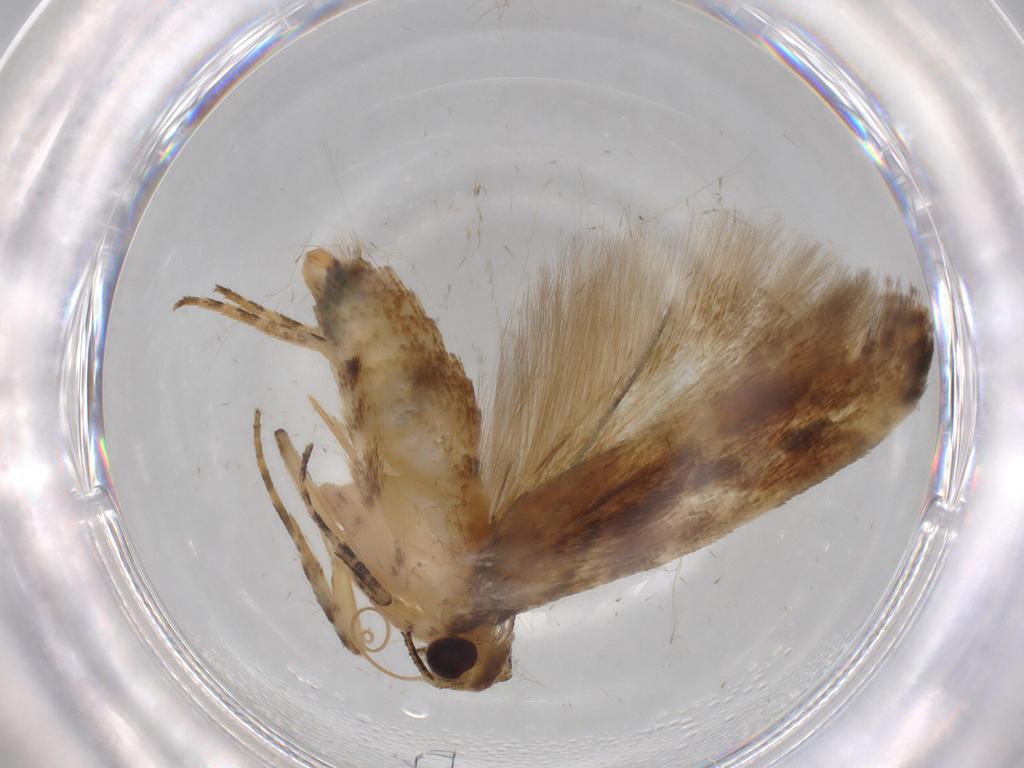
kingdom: Animalia
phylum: Arthropoda
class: Insecta
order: Lepidoptera
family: Gelechiidae
